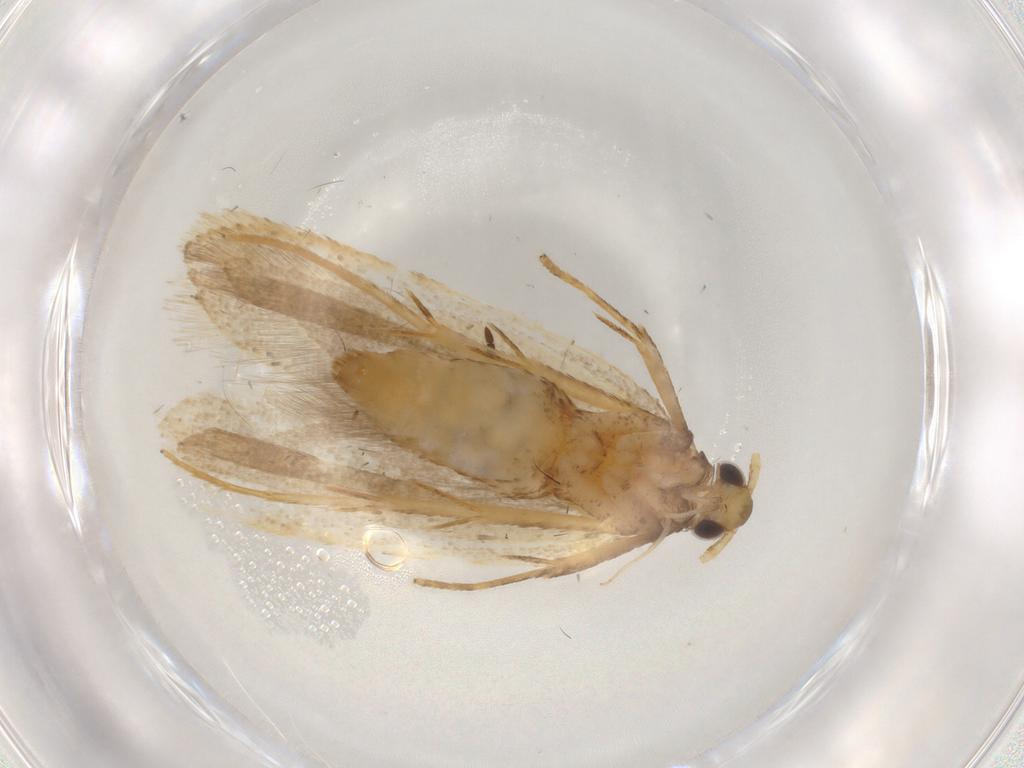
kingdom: Animalia
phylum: Arthropoda
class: Insecta
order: Lepidoptera
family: Lecithoceridae
